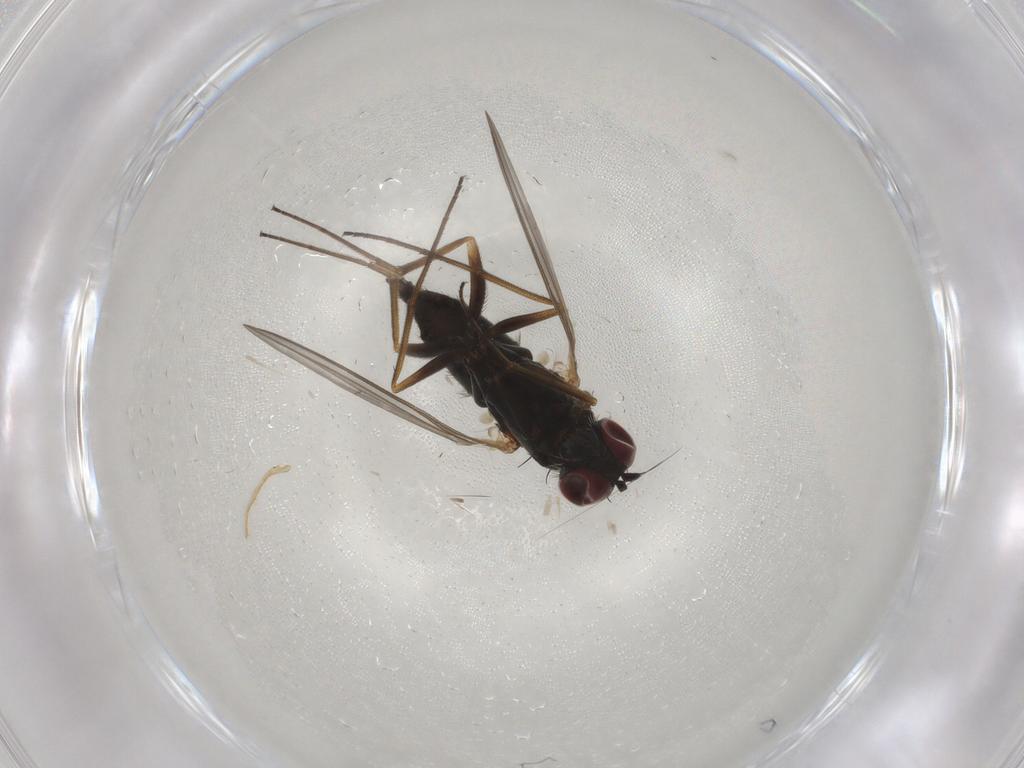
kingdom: Animalia
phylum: Arthropoda
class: Insecta
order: Diptera
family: Dolichopodidae
